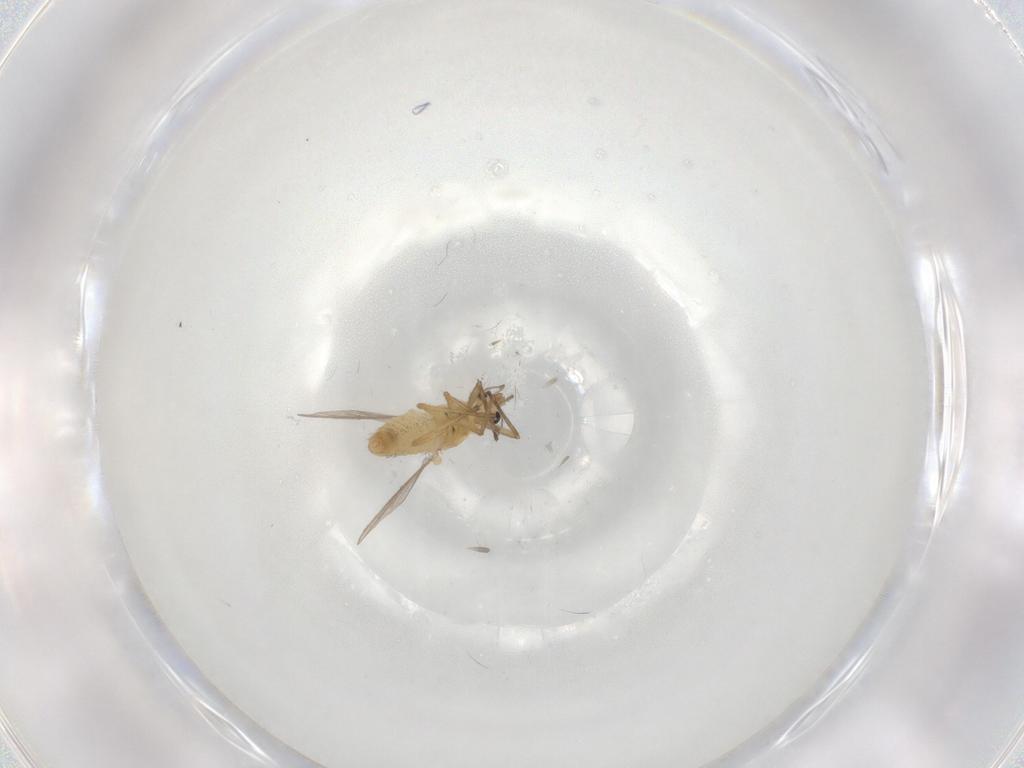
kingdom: Animalia
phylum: Arthropoda
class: Insecta
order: Diptera
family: Chironomidae
